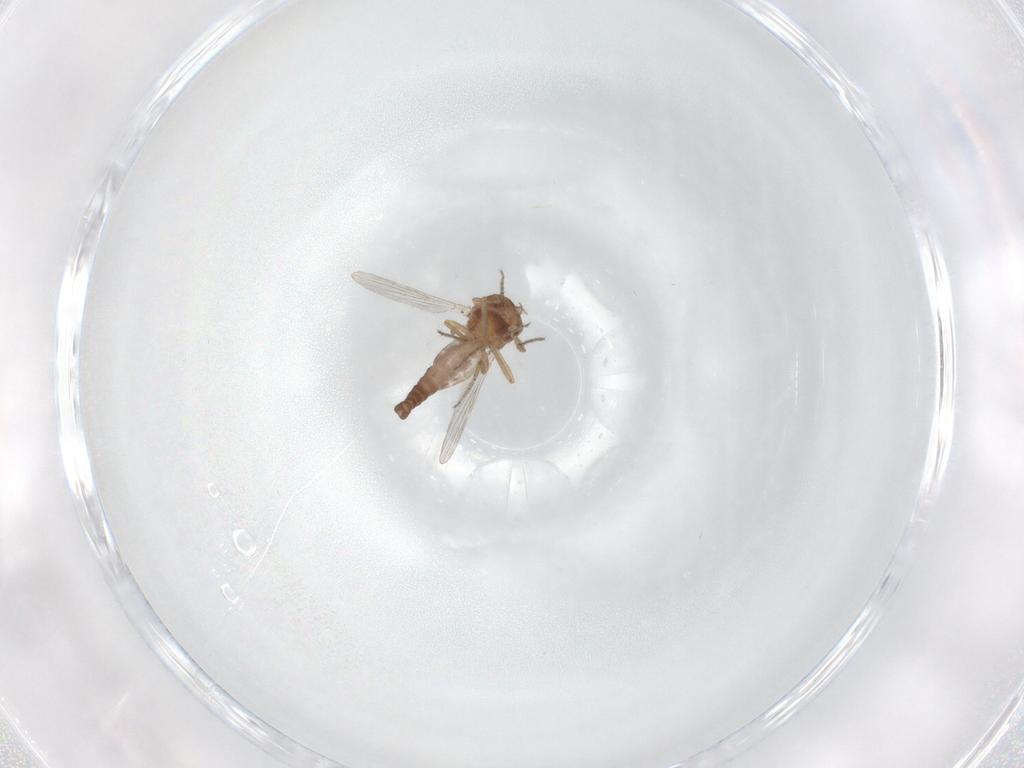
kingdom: Animalia
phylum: Arthropoda
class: Insecta
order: Diptera
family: Ceratopogonidae
